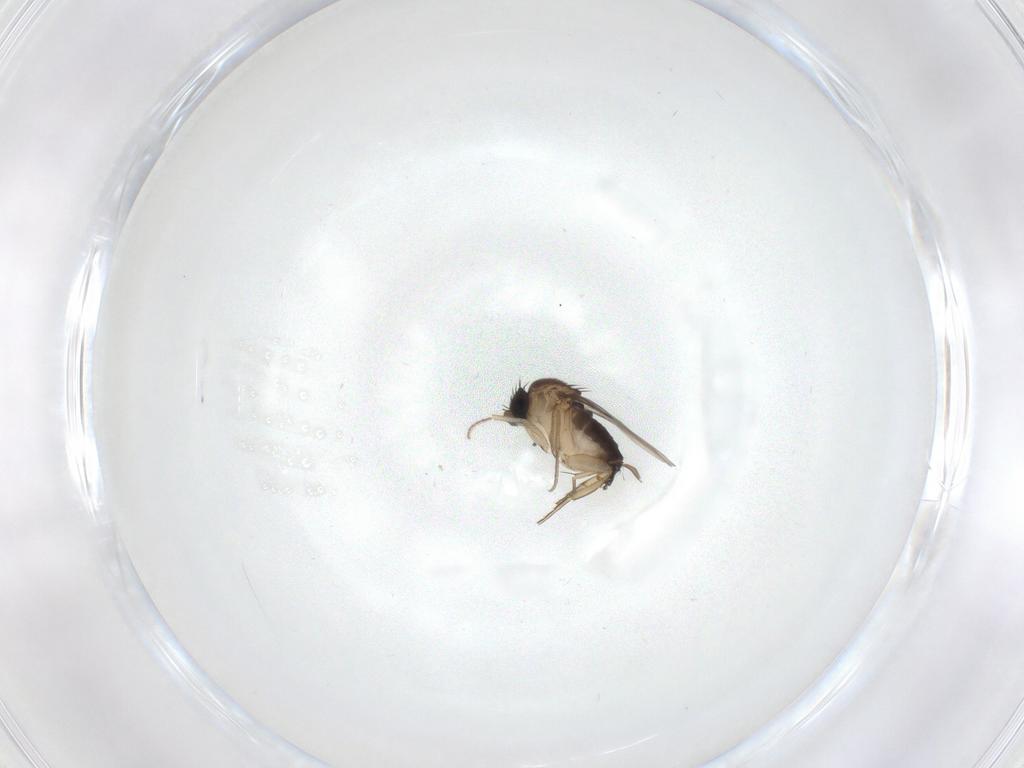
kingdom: Animalia
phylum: Arthropoda
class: Insecta
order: Diptera
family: Phoridae
